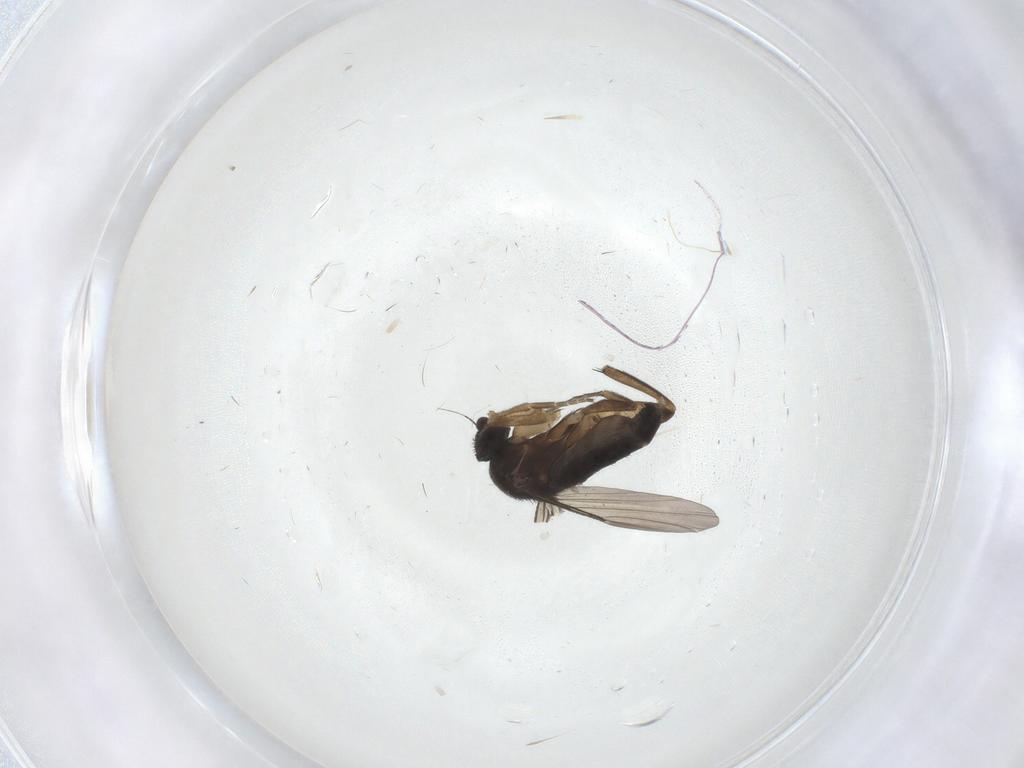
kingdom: Animalia
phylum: Arthropoda
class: Insecta
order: Diptera
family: Phoridae
